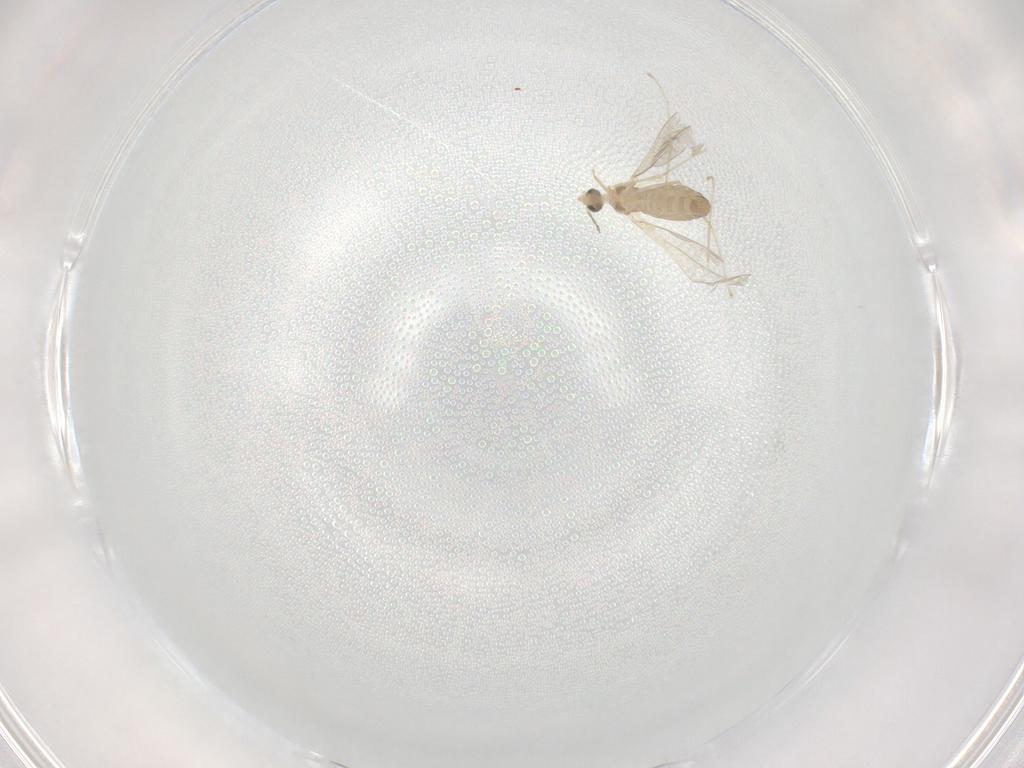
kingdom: Animalia
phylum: Arthropoda
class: Insecta
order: Diptera
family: Cecidomyiidae
